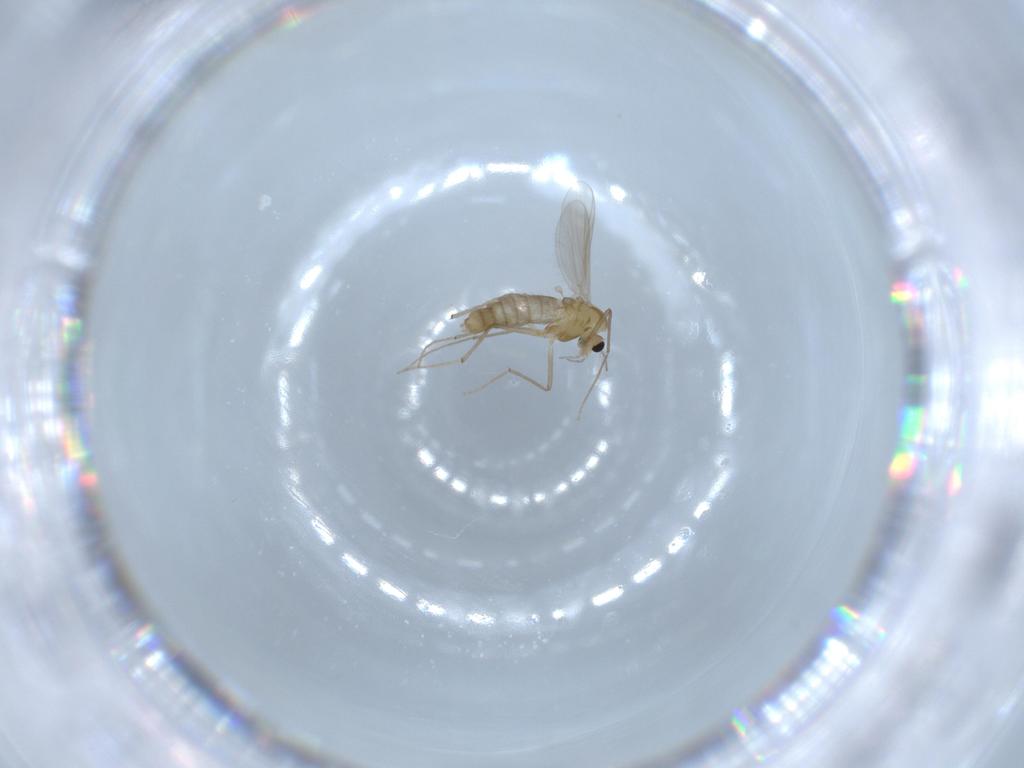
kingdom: Animalia
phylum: Arthropoda
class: Insecta
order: Diptera
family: Chironomidae
